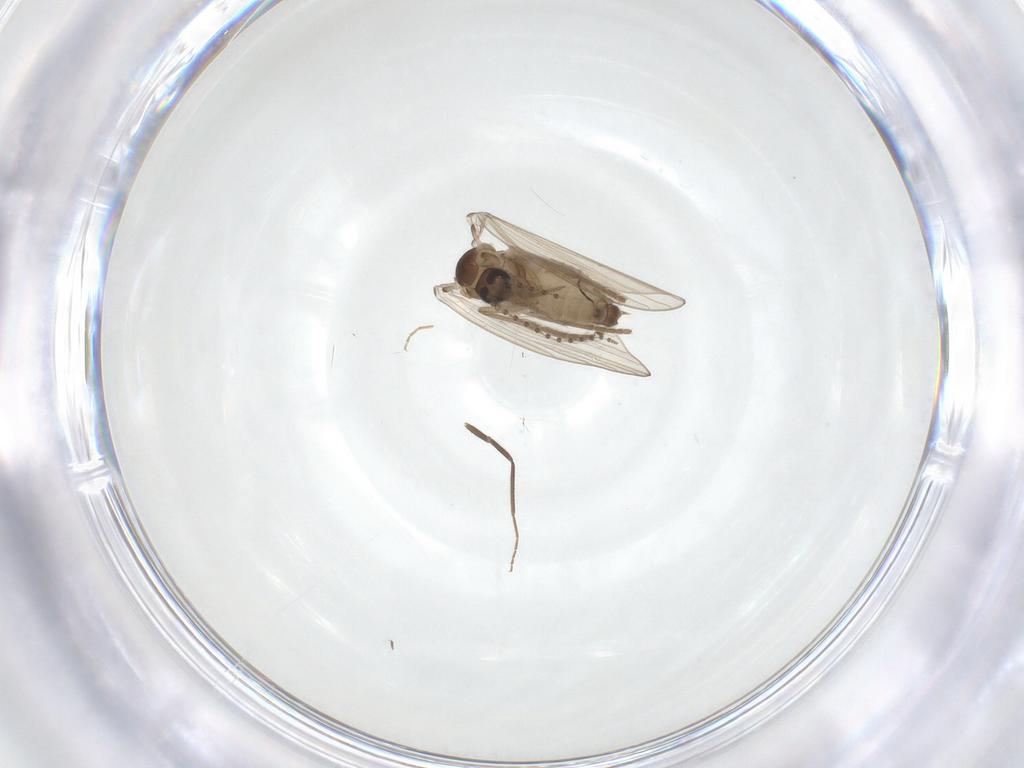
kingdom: Animalia
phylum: Arthropoda
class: Insecta
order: Diptera
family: Psychodidae
